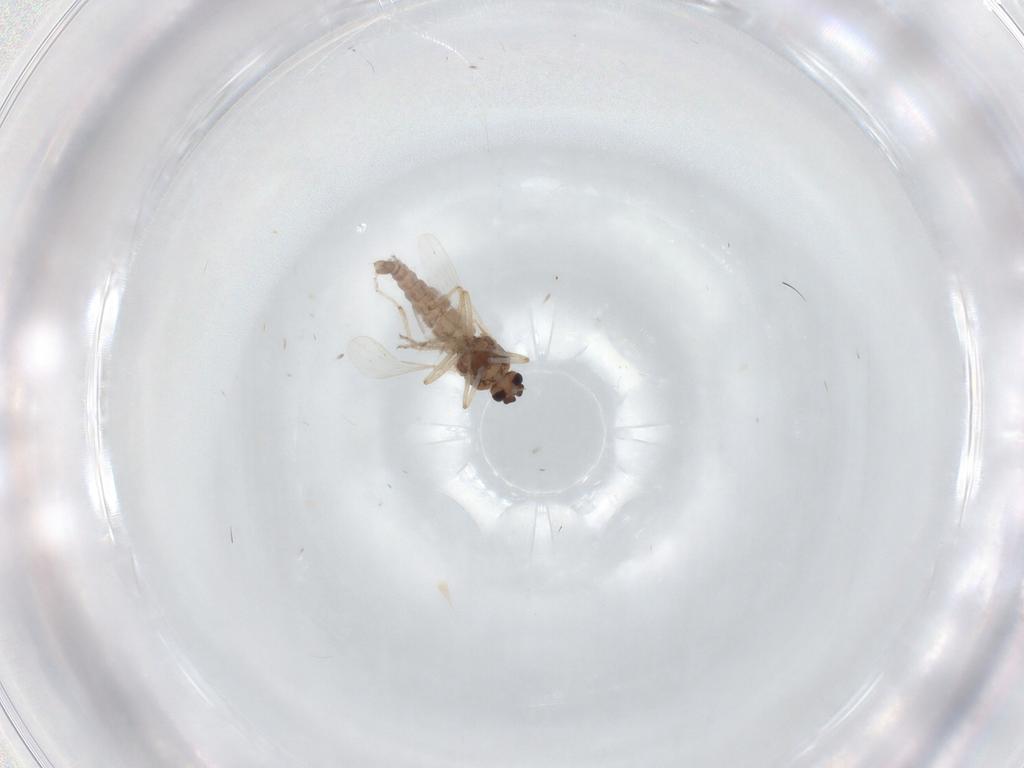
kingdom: Animalia
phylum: Arthropoda
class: Insecta
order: Diptera
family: Ceratopogonidae
